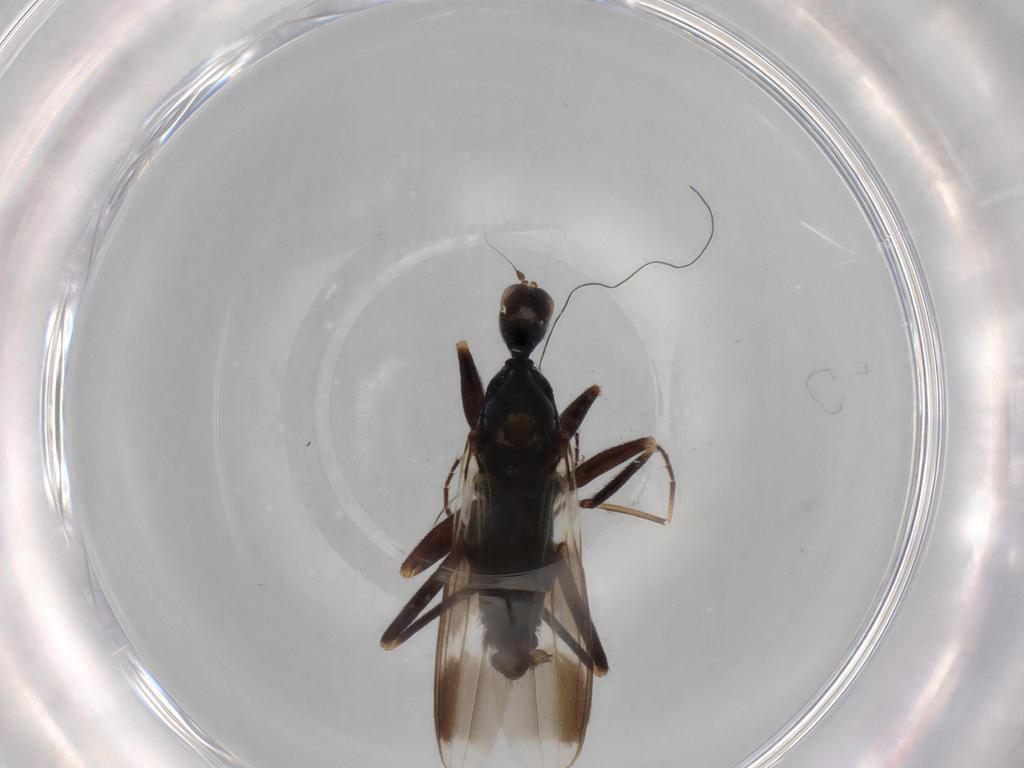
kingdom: Animalia
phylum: Arthropoda
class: Insecta
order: Diptera
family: Hybotidae
